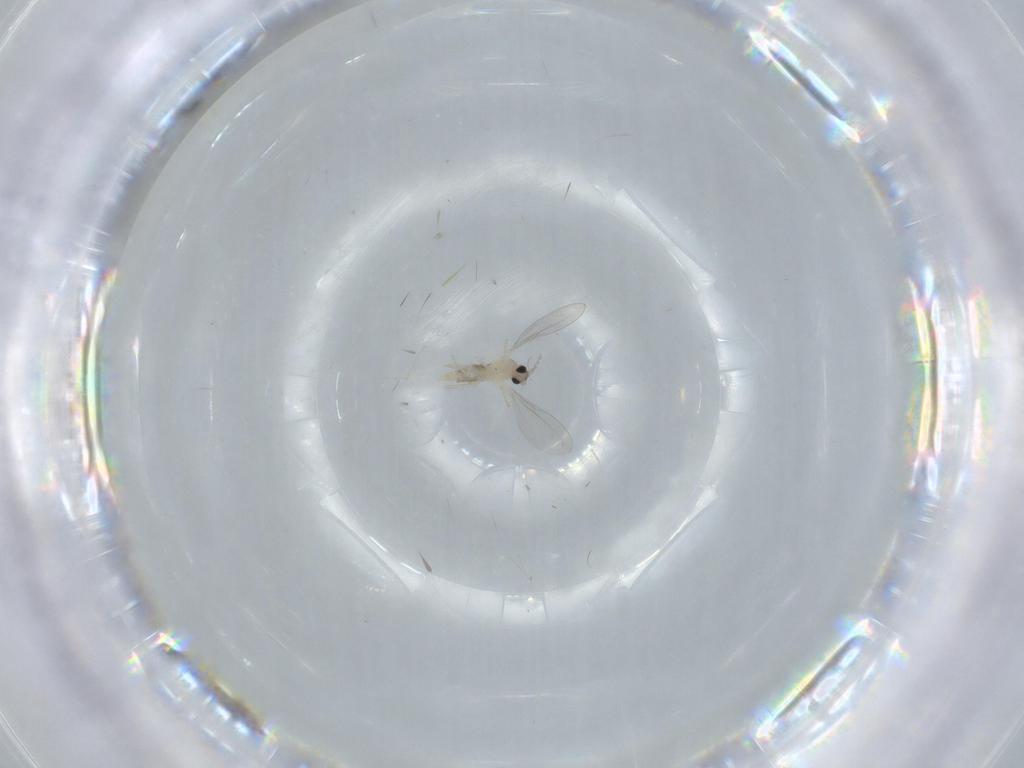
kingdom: Animalia
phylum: Arthropoda
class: Insecta
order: Diptera
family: Cecidomyiidae
